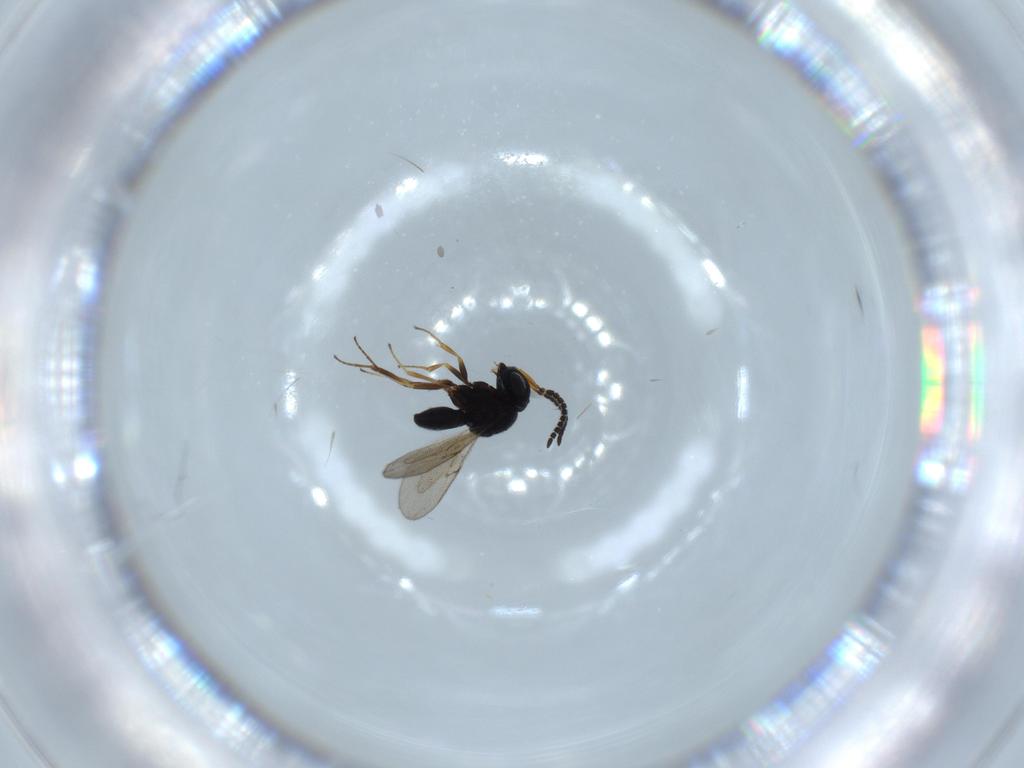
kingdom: Animalia
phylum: Arthropoda
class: Insecta
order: Hymenoptera
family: Scelionidae
